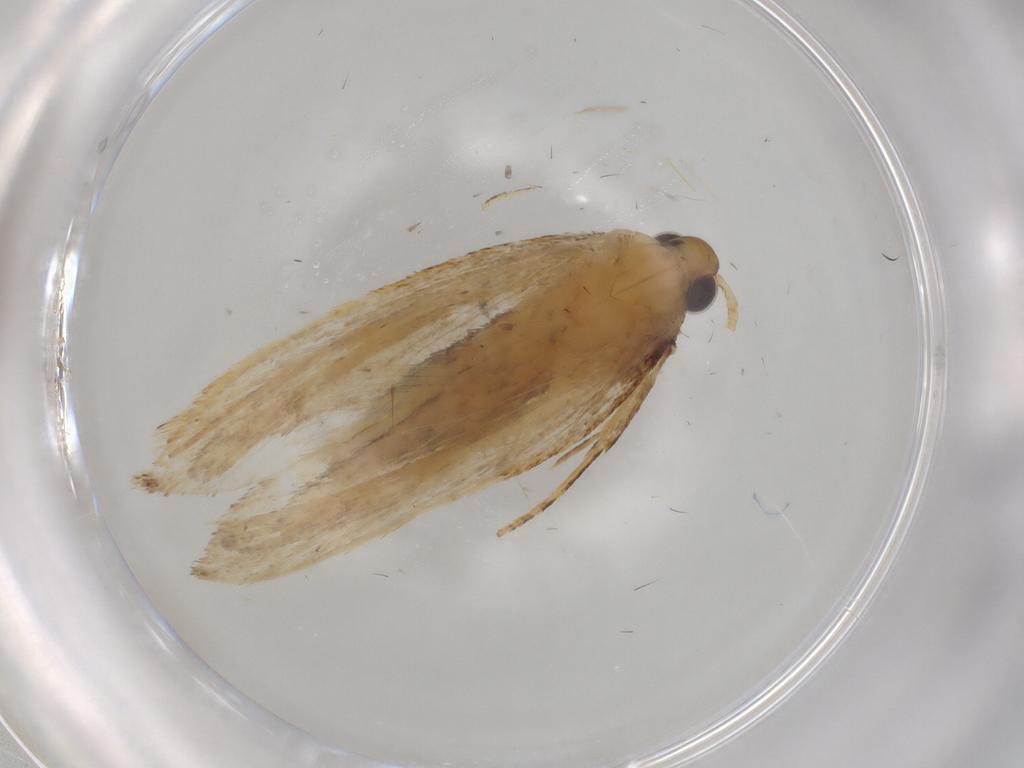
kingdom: Animalia
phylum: Arthropoda
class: Insecta
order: Lepidoptera
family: Lecithoceridae
